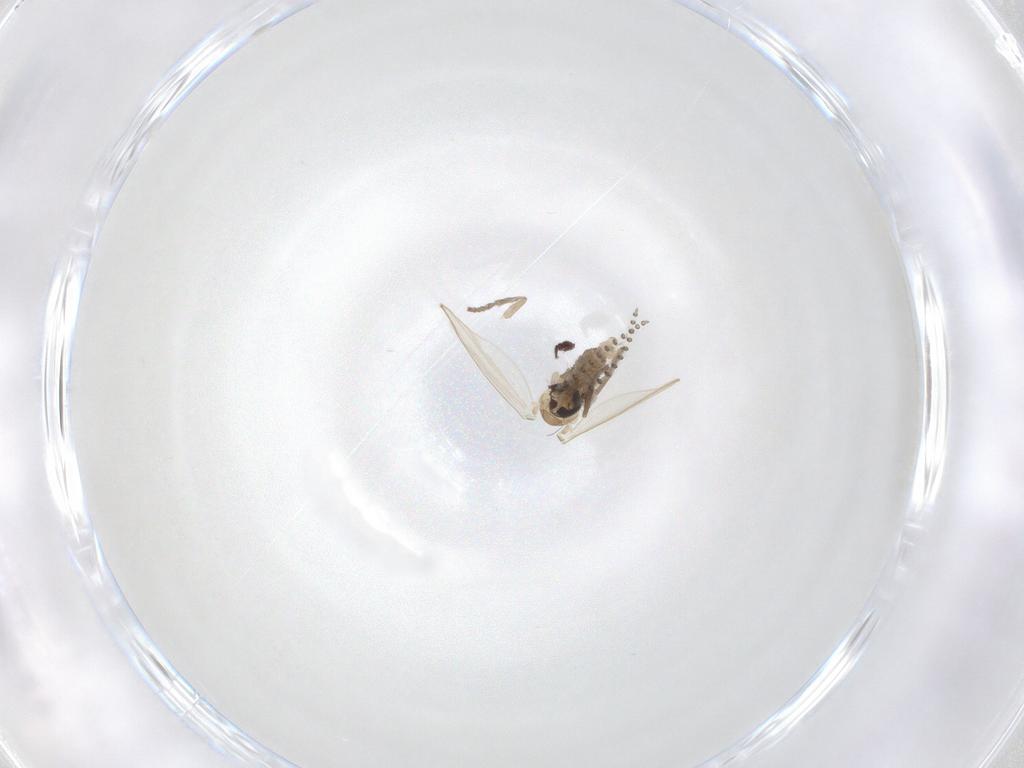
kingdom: Animalia
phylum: Arthropoda
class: Insecta
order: Diptera
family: Psychodidae
